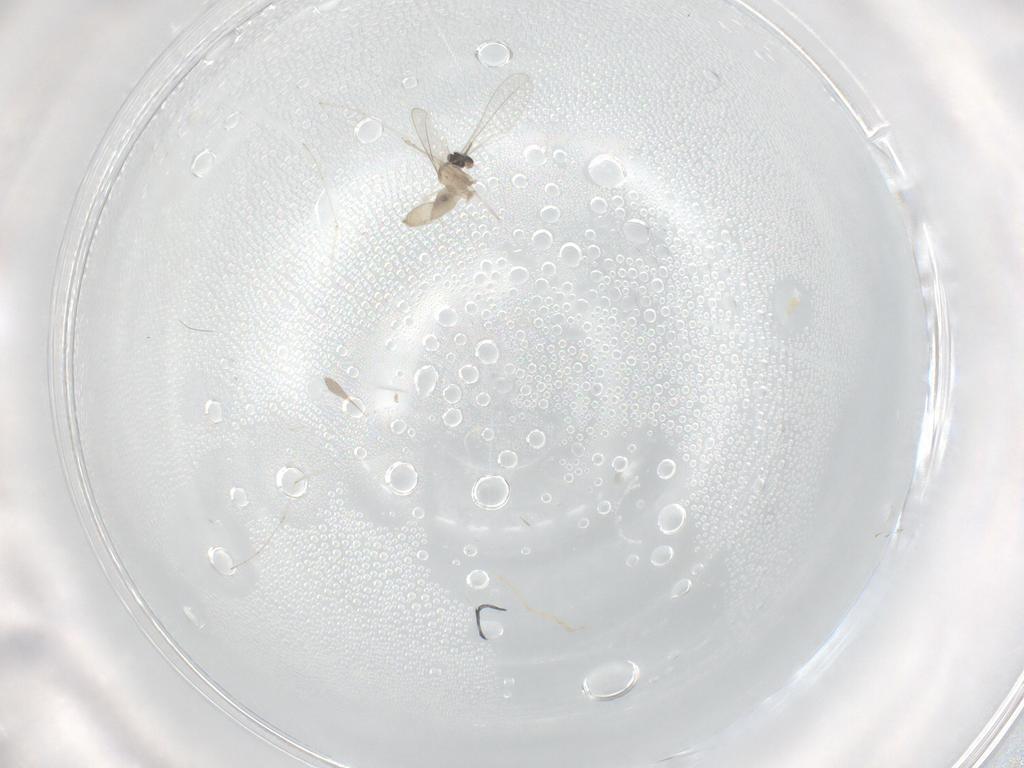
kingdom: Animalia
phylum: Arthropoda
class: Insecta
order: Diptera
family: Cecidomyiidae
